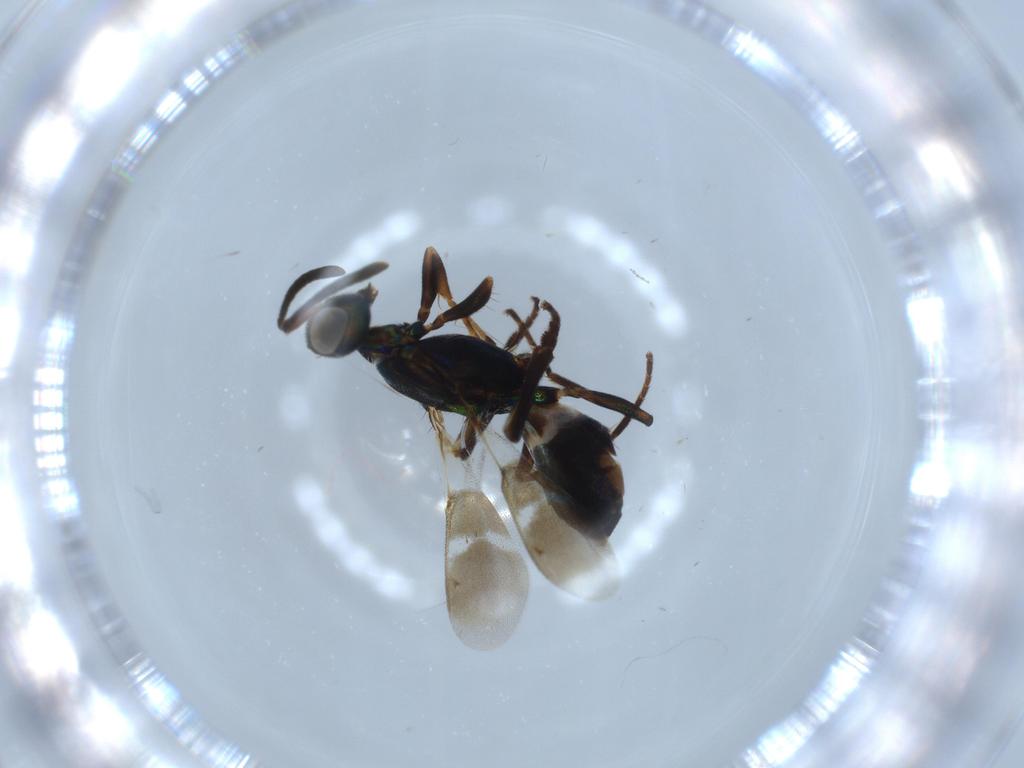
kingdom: Animalia
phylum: Arthropoda
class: Insecta
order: Hymenoptera
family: Eupelmidae
